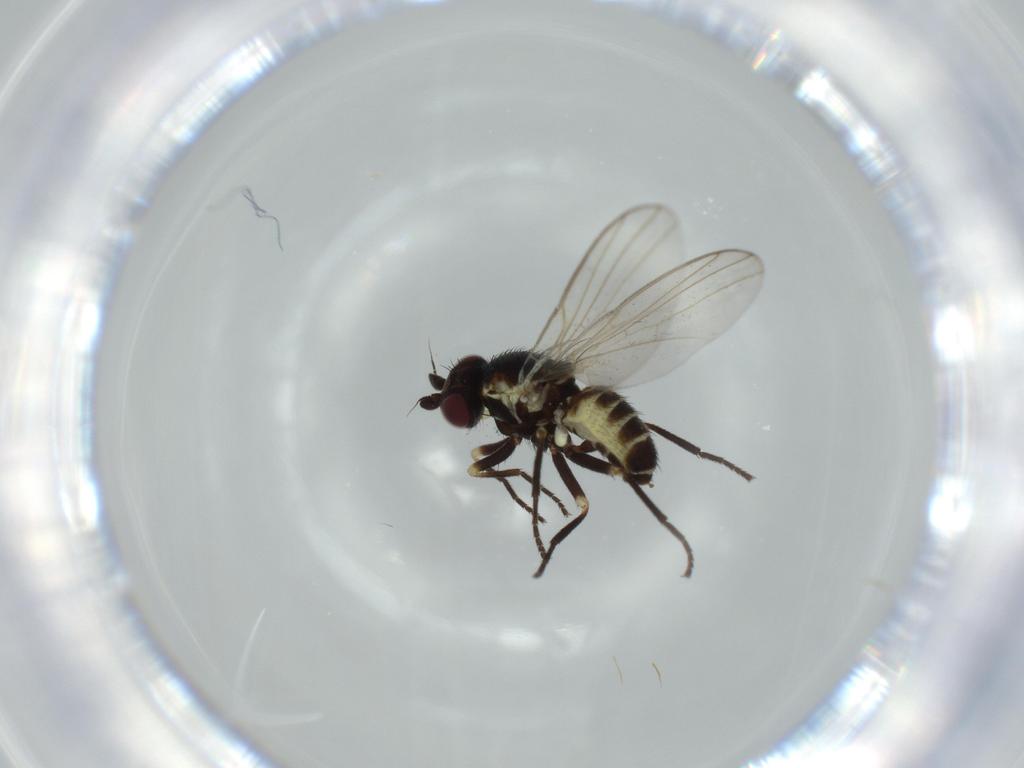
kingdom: Animalia
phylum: Arthropoda
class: Insecta
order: Diptera
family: Chironomidae
